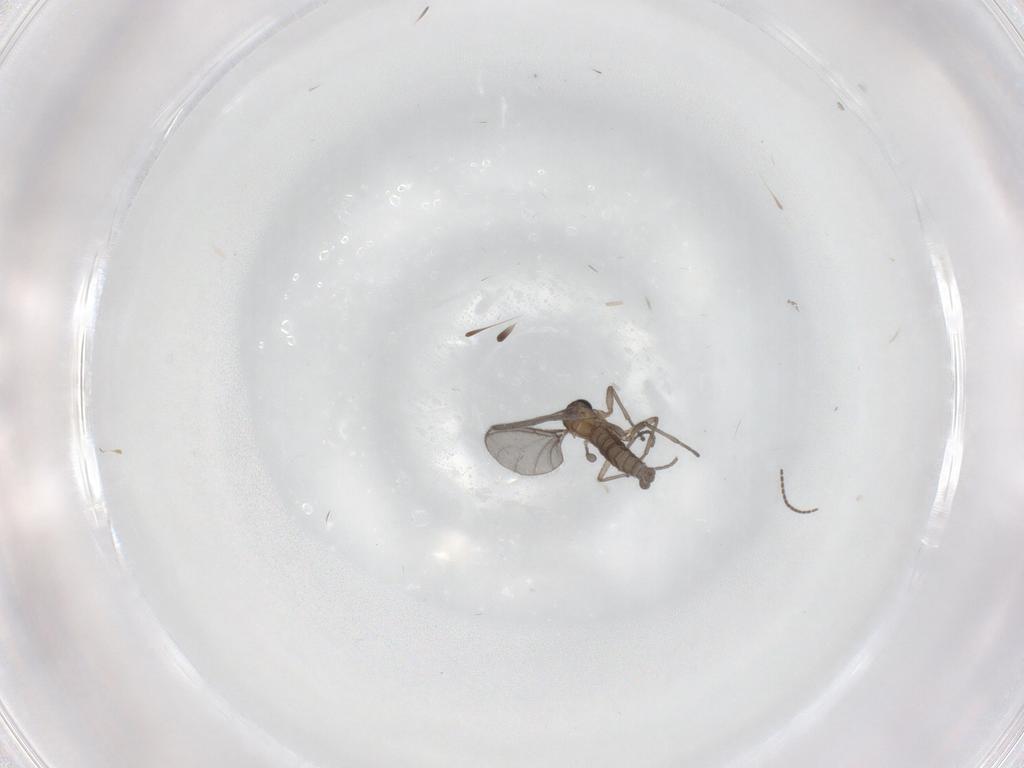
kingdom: Animalia
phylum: Arthropoda
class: Insecta
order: Diptera
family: Sciaridae
